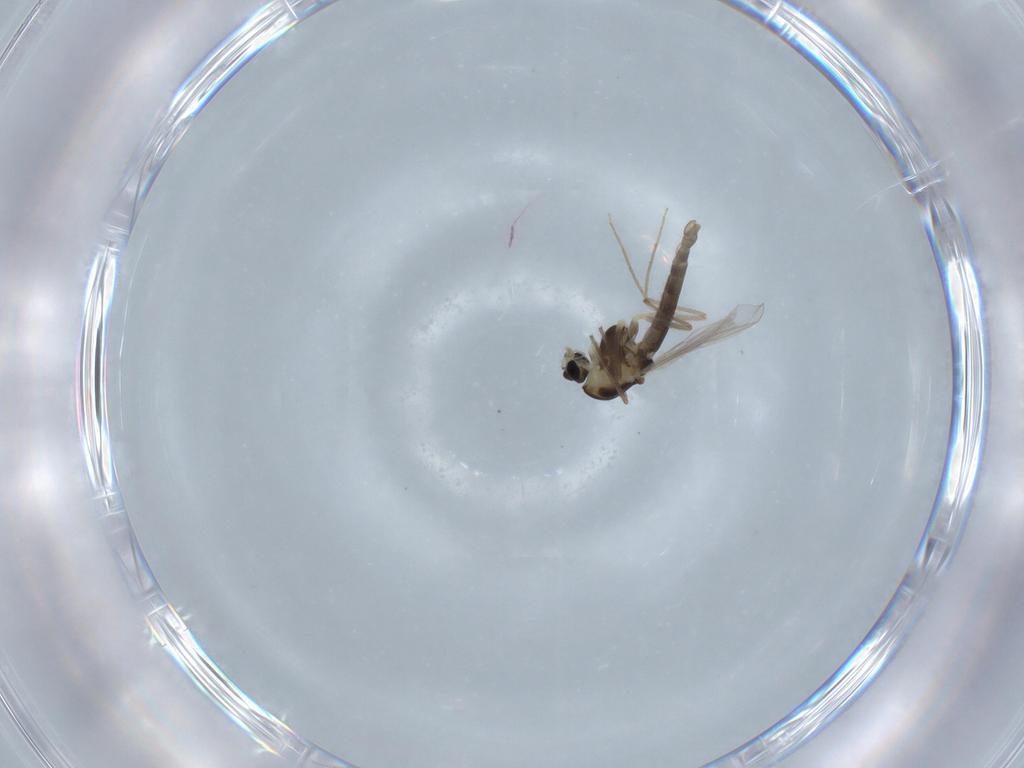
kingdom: Animalia
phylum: Arthropoda
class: Insecta
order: Diptera
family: Chironomidae
